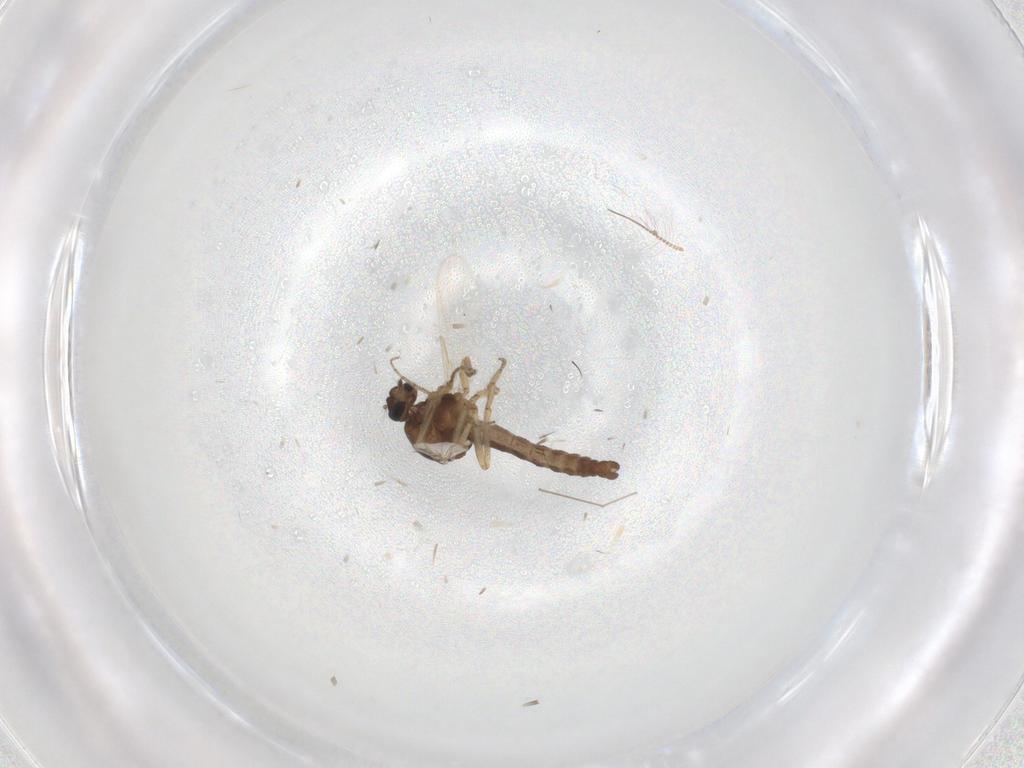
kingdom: Animalia
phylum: Arthropoda
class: Insecta
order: Diptera
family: Ceratopogonidae
